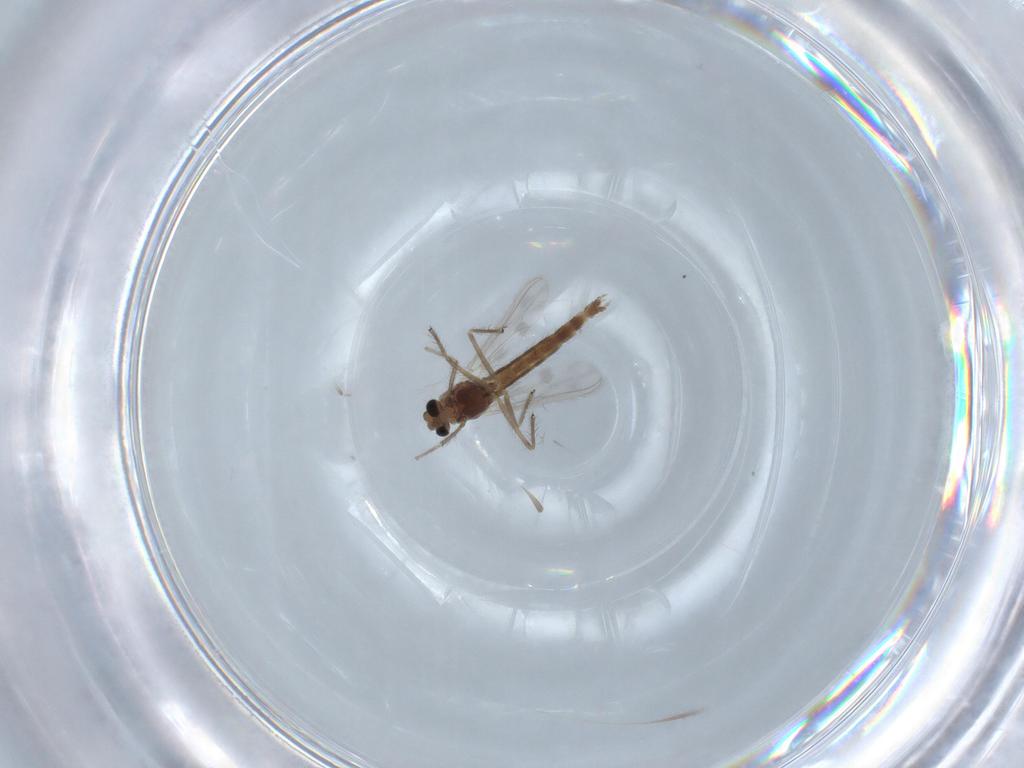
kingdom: Animalia
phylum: Arthropoda
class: Insecta
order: Diptera
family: Chironomidae
